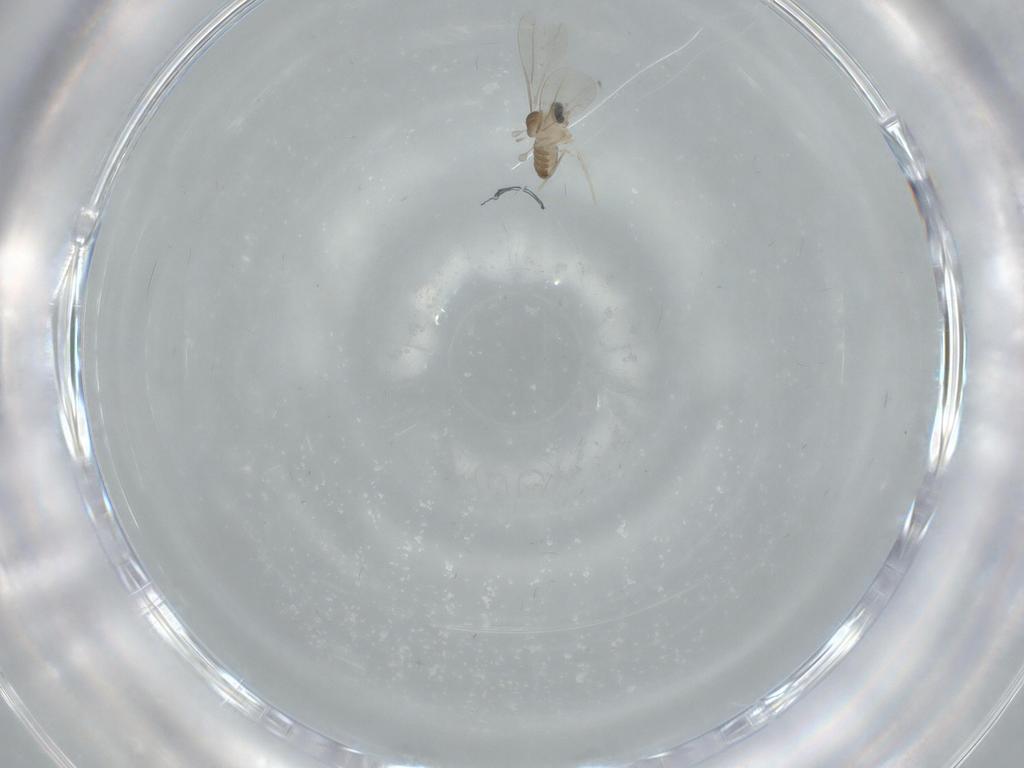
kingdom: Animalia
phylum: Arthropoda
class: Insecta
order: Diptera
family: Cecidomyiidae
